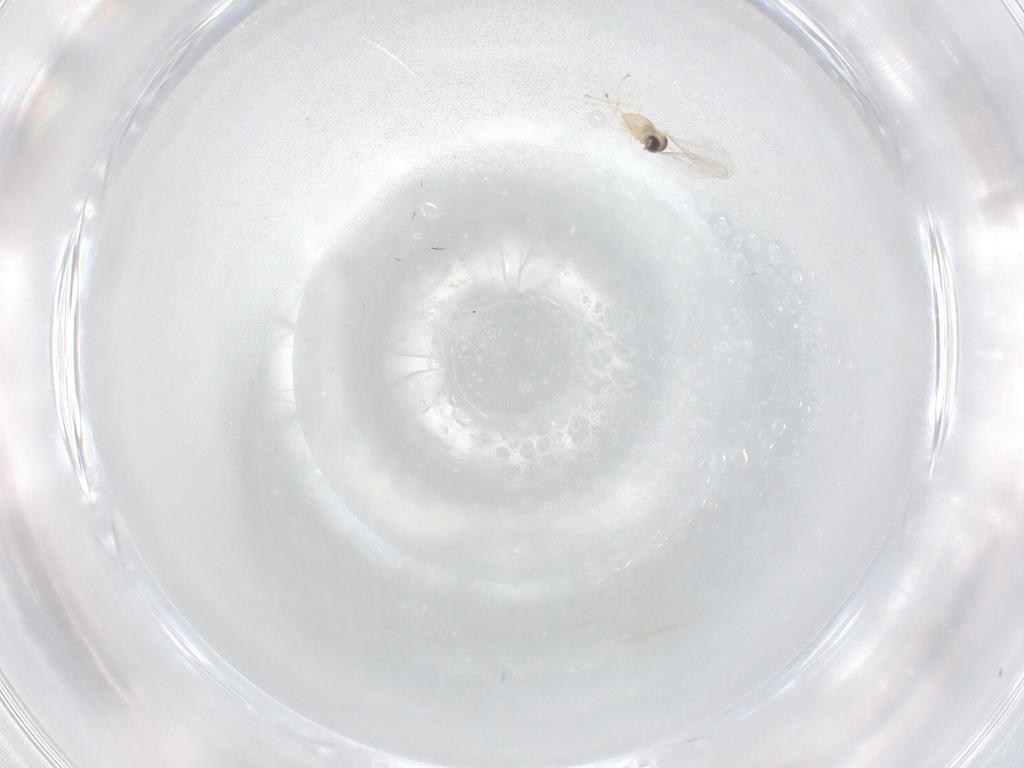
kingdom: Animalia
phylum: Arthropoda
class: Insecta
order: Diptera
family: Cecidomyiidae
